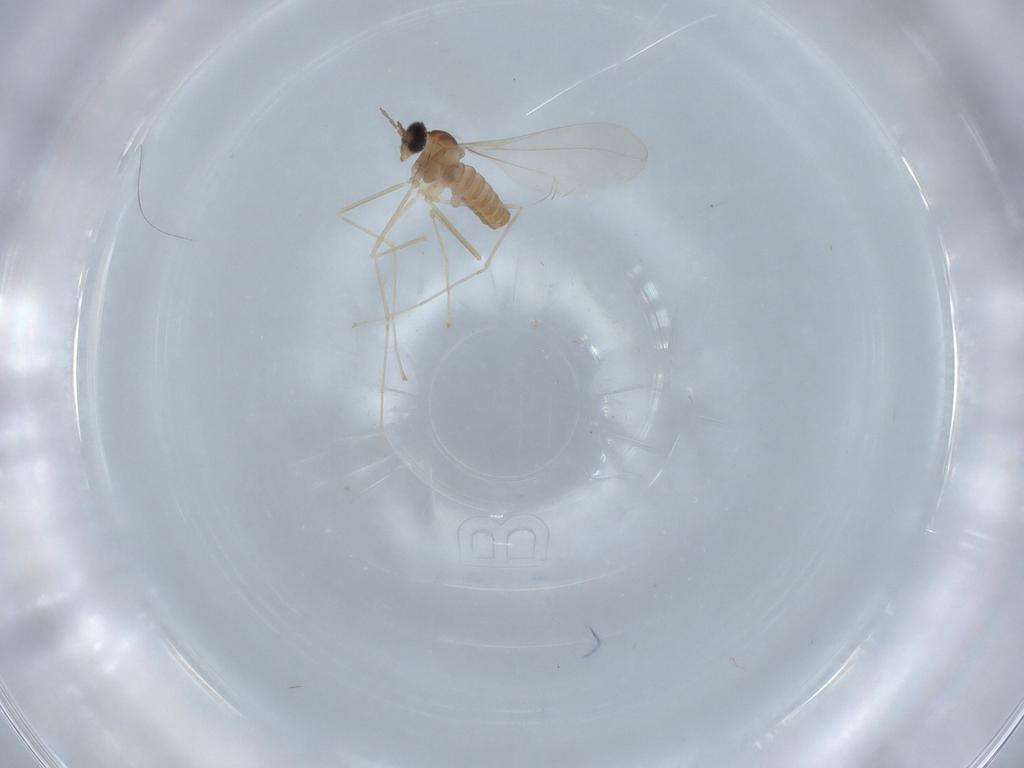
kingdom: Animalia
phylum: Arthropoda
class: Insecta
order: Diptera
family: Cecidomyiidae
